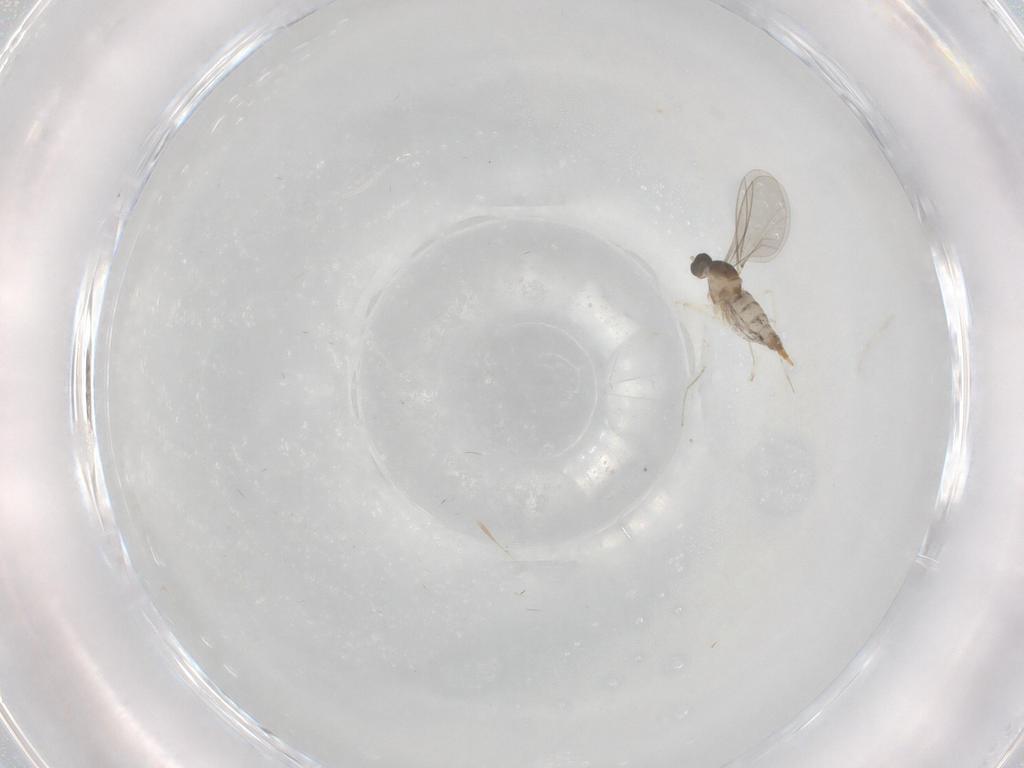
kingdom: Animalia
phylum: Arthropoda
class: Insecta
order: Diptera
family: Cecidomyiidae
